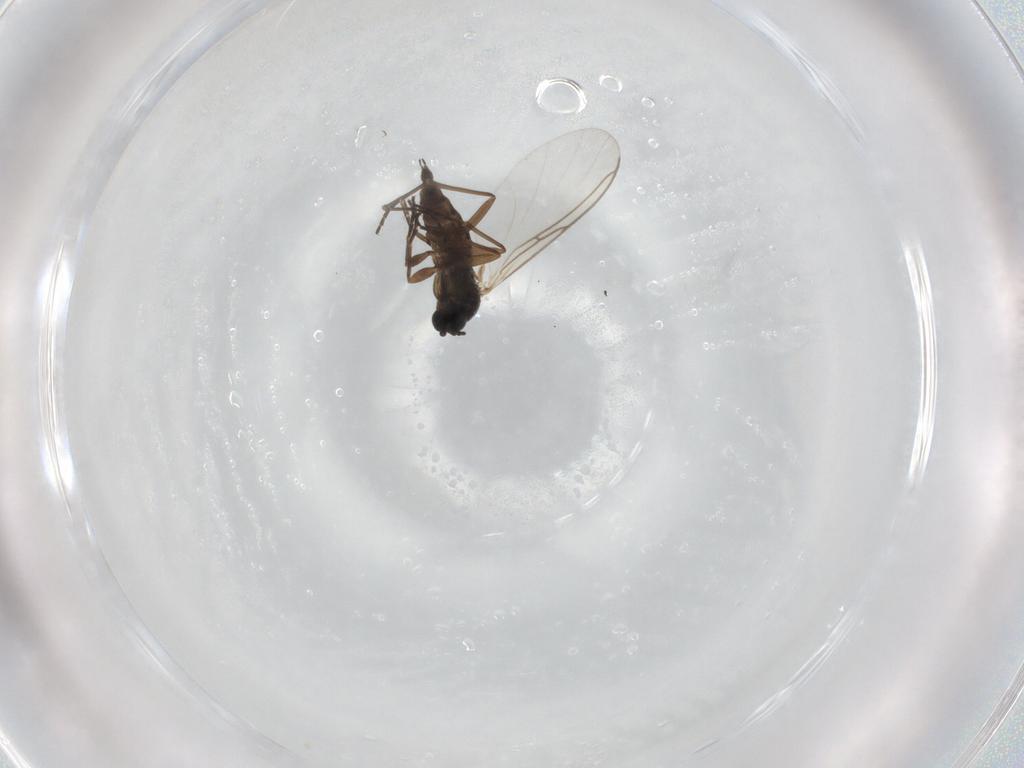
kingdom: Animalia
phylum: Arthropoda
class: Insecta
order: Diptera
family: Sciaridae
